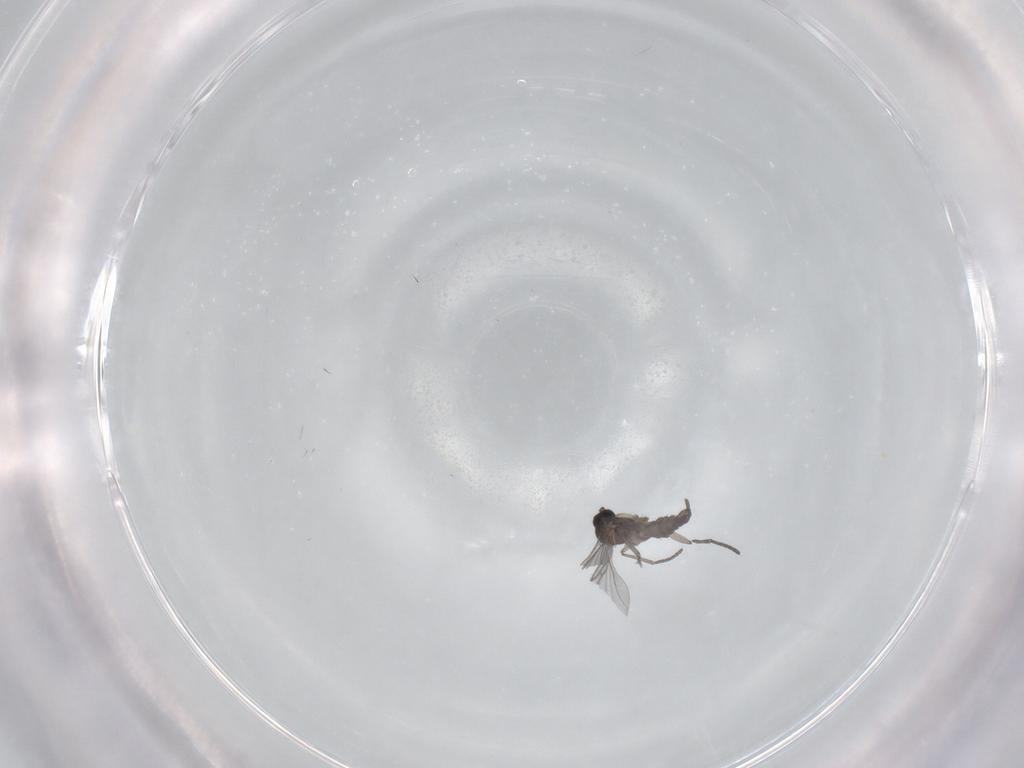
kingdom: Animalia
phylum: Arthropoda
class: Insecta
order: Diptera
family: Sciaridae
